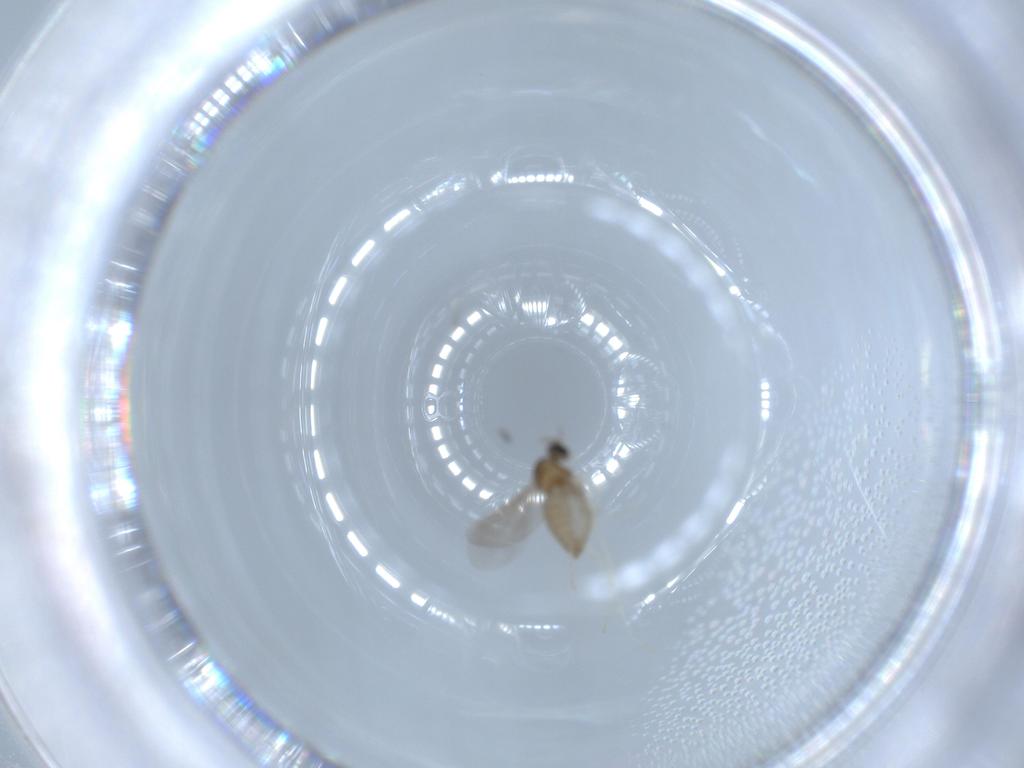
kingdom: Animalia
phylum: Arthropoda
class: Insecta
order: Diptera
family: Cecidomyiidae
